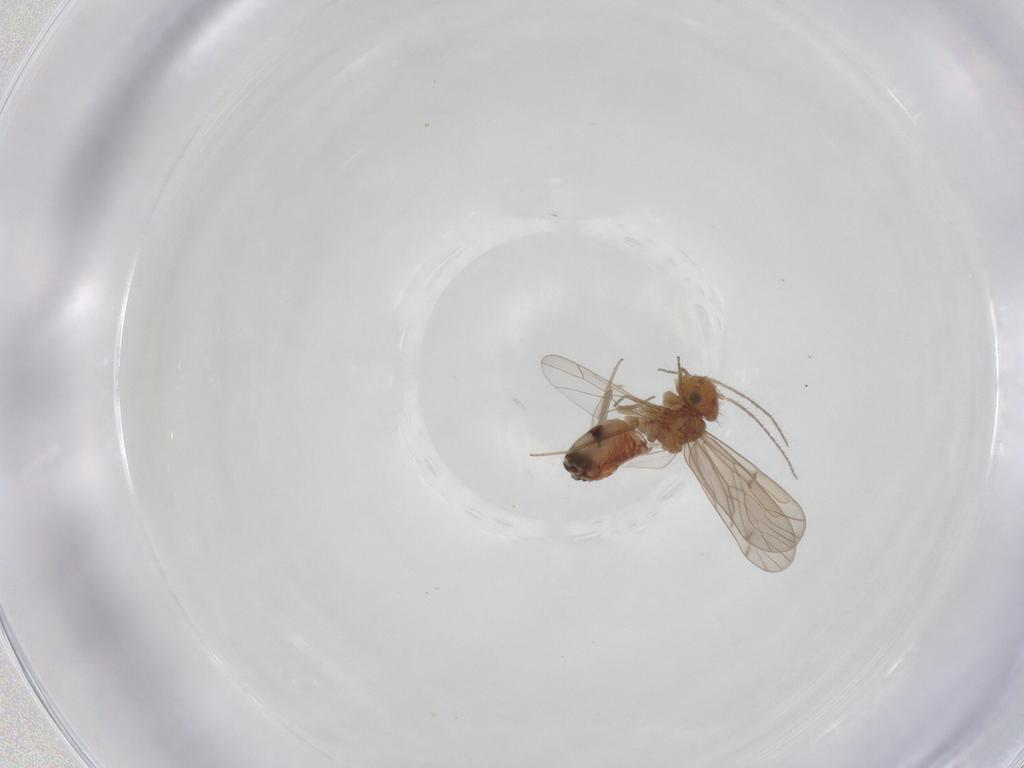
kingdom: Animalia
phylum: Arthropoda
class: Insecta
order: Psocodea
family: Ectopsocidae
